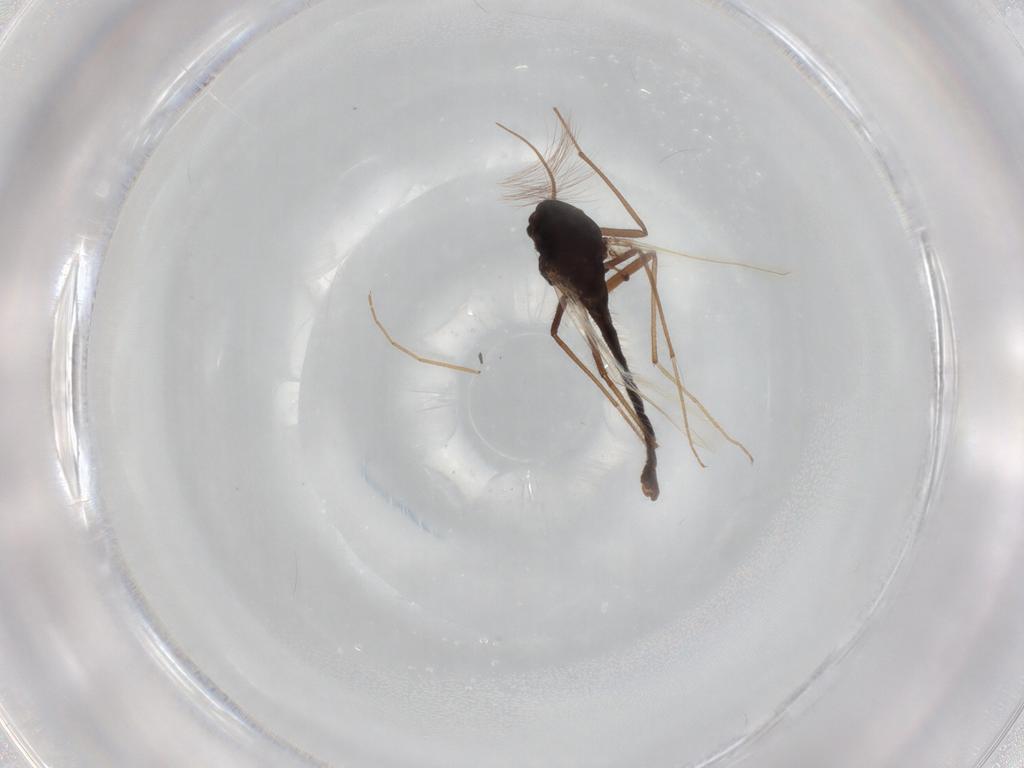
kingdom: Animalia
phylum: Arthropoda
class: Insecta
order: Diptera
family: Chironomidae
